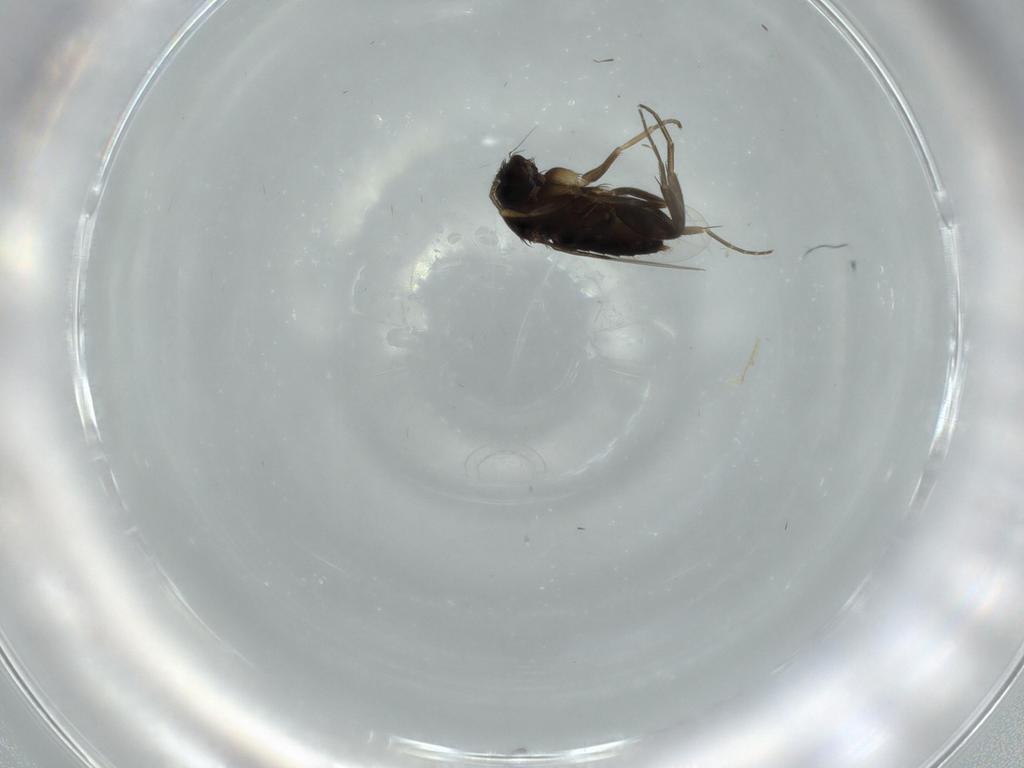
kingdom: Animalia
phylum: Arthropoda
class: Insecta
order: Diptera
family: Phoridae
